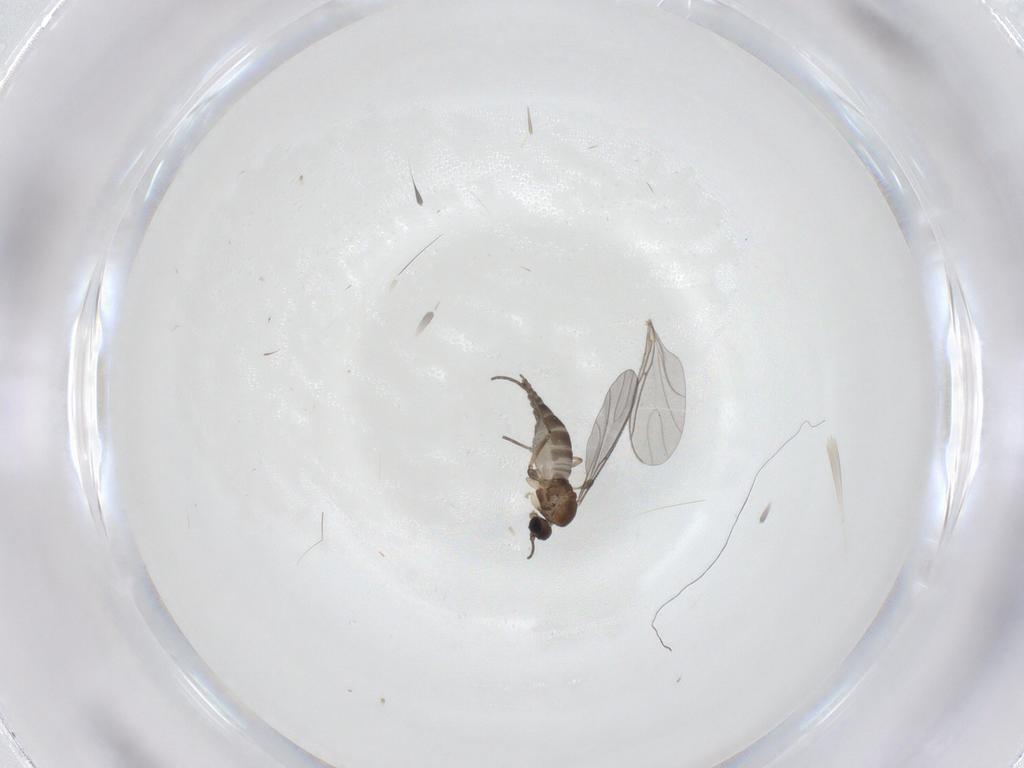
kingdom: Animalia
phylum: Arthropoda
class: Insecta
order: Diptera
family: Sciaridae
